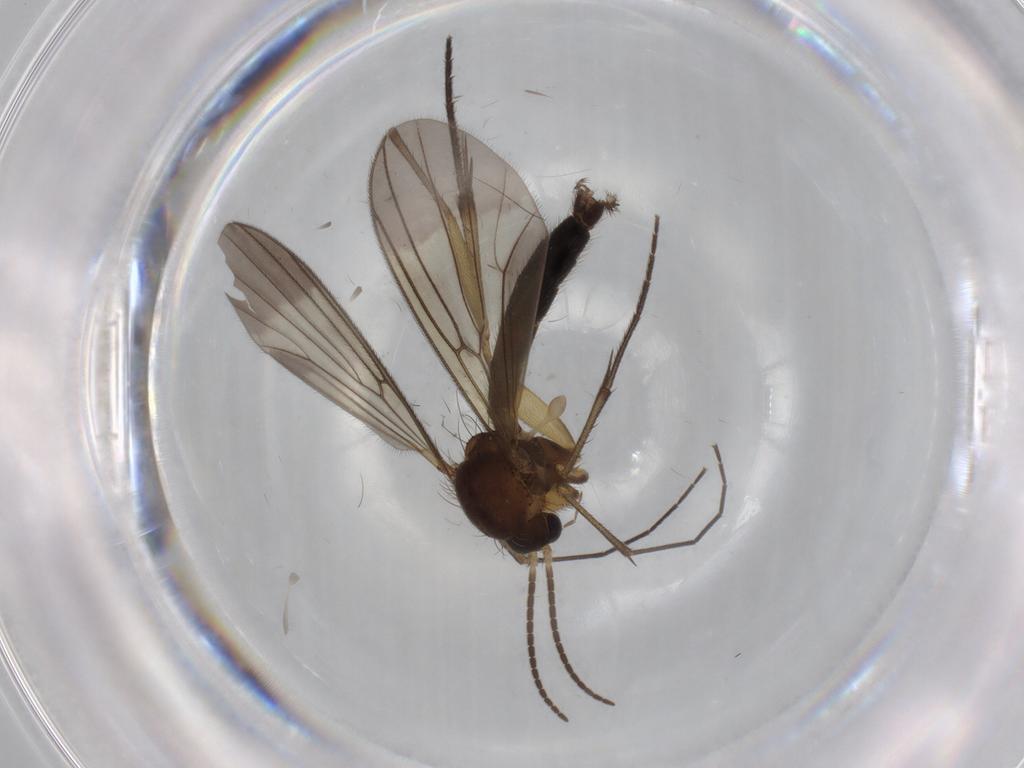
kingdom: Animalia
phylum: Arthropoda
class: Insecta
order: Diptera
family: Mycetophilidae
